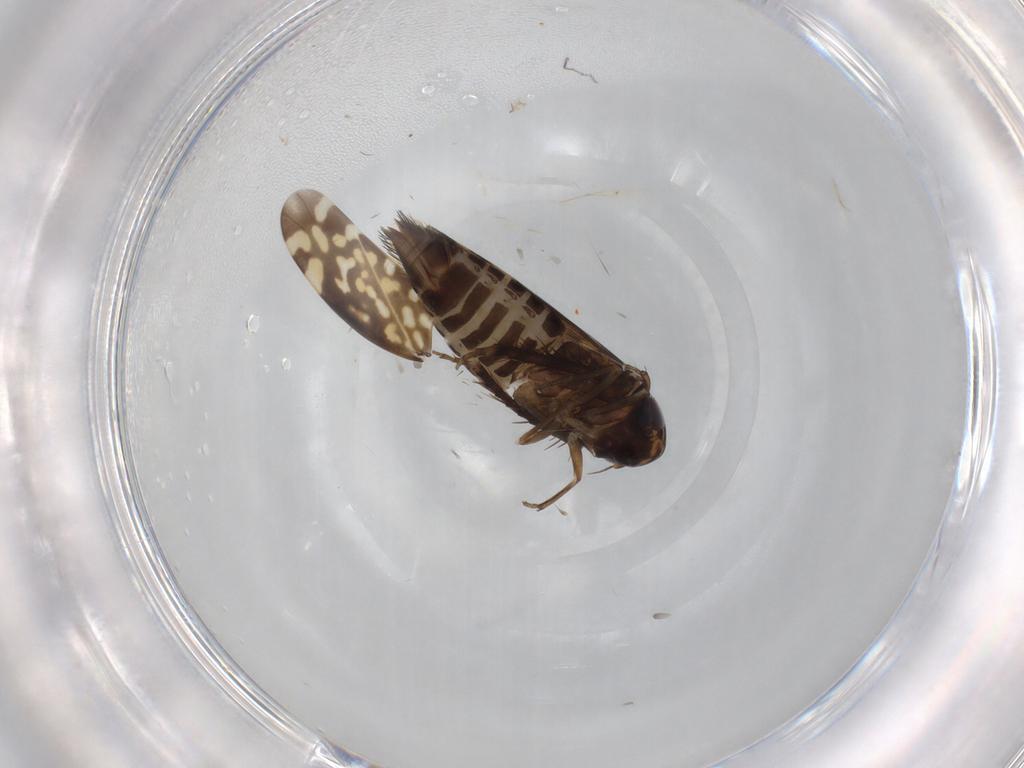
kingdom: Animalia
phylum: Arthropoda
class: Insecta
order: Hemiptera
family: Cicadellidae
